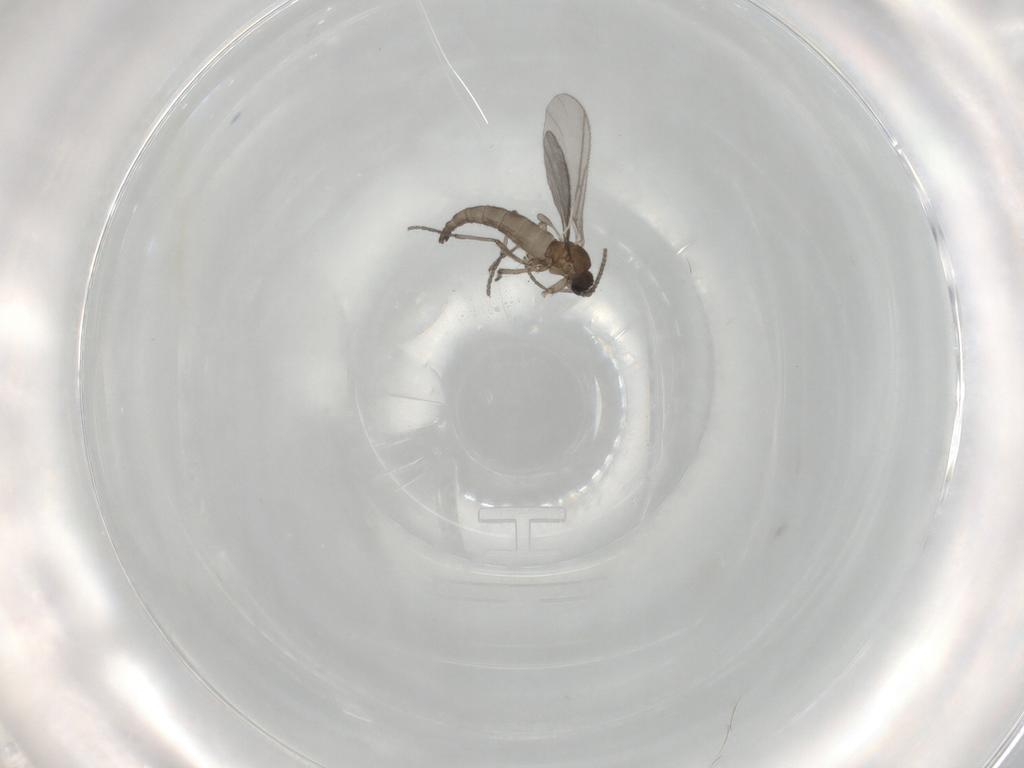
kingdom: Animalia
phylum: Arthropoda
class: Insecta
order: Diptera
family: Sciaridae
